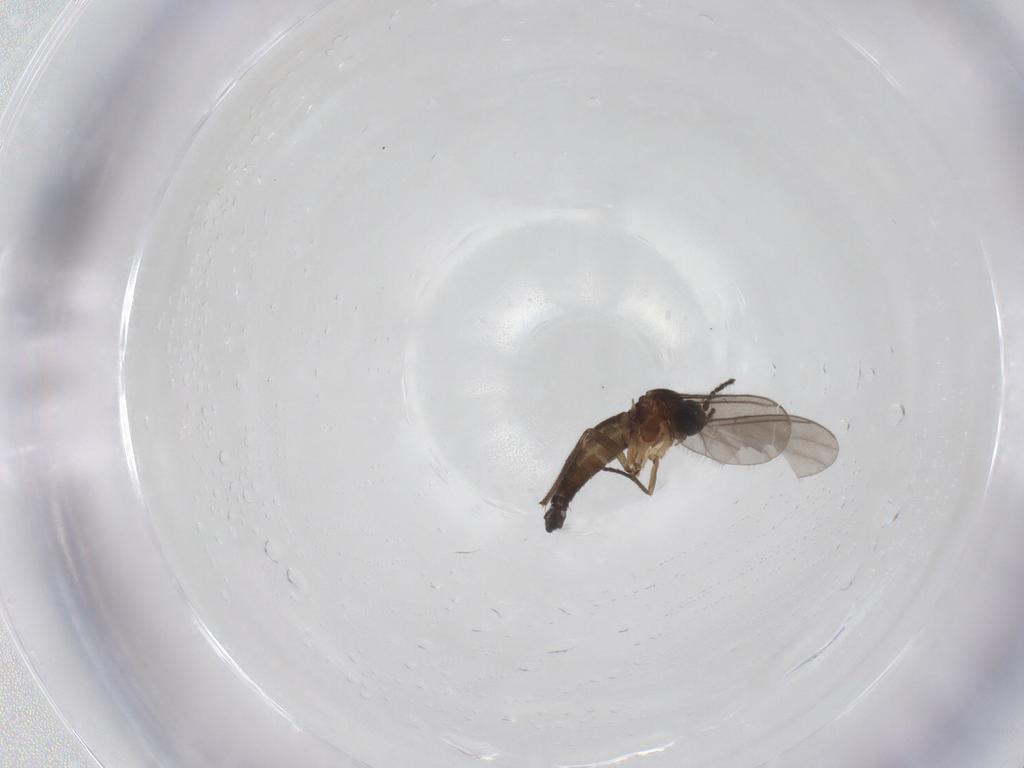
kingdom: Animalia
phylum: Arthropoda
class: Insecta
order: Diptera
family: Sciaridae
